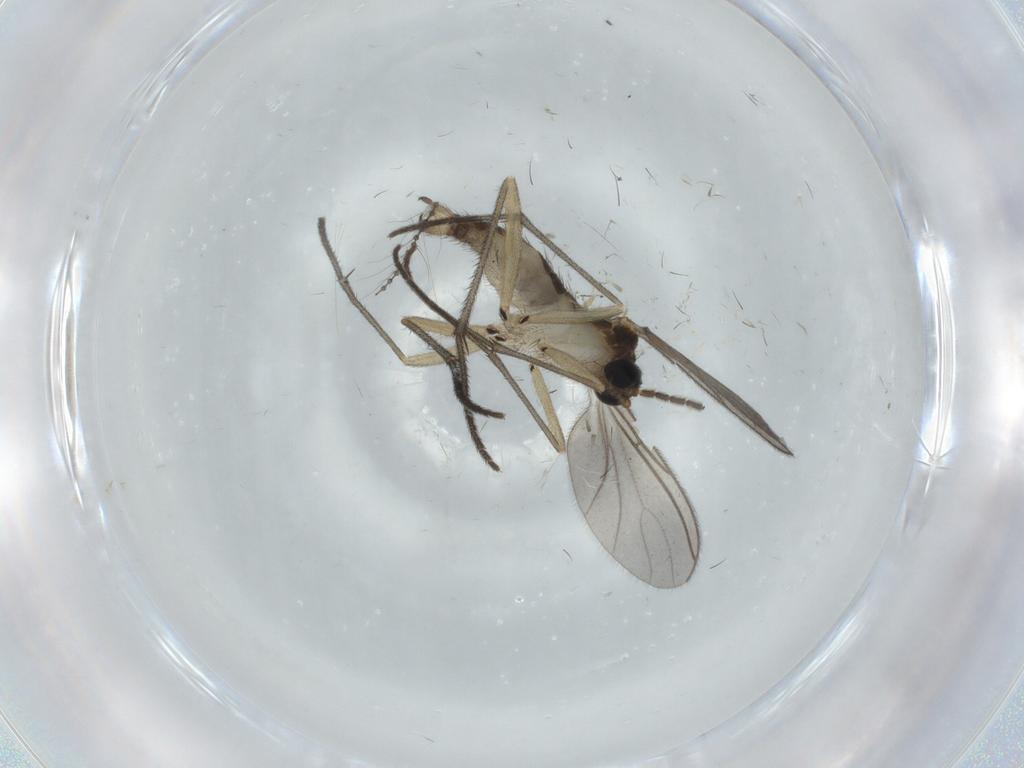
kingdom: Animalia
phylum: Arthropoda
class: Insecta
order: Diptera
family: Sciaridae
